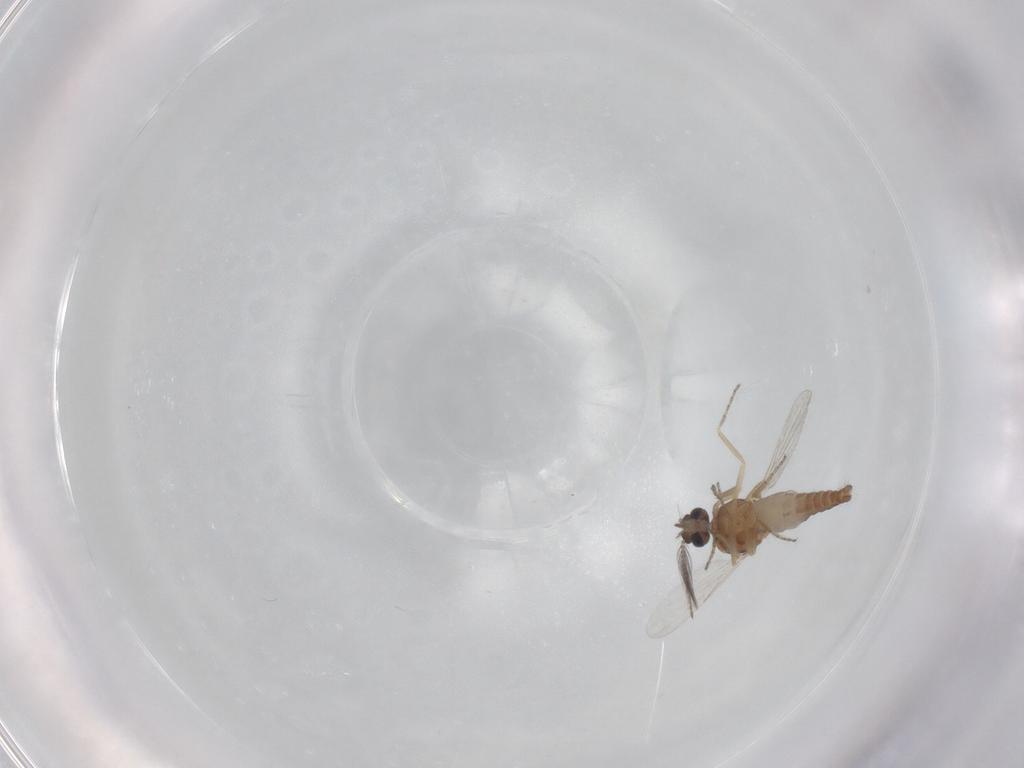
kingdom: Animalia
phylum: Arthropoda
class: Insecta
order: Diptera
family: Ceratopogonidae
